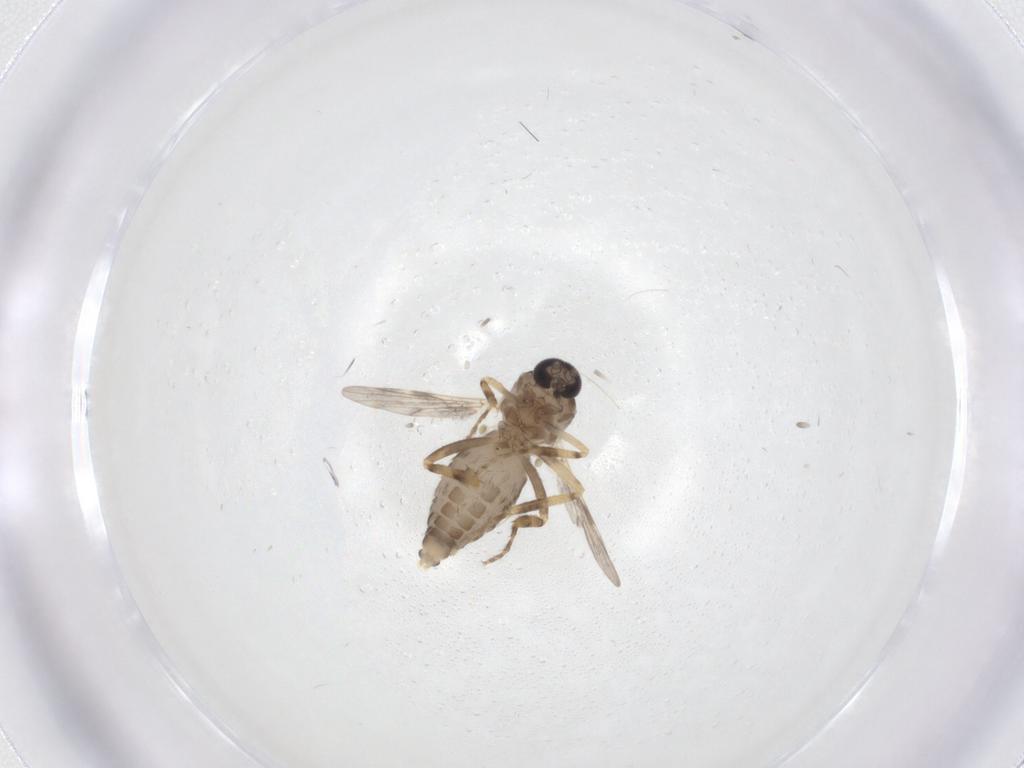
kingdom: Animalia
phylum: Arthropoda
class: Insecta
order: Diptera
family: Ceratopogonidae
